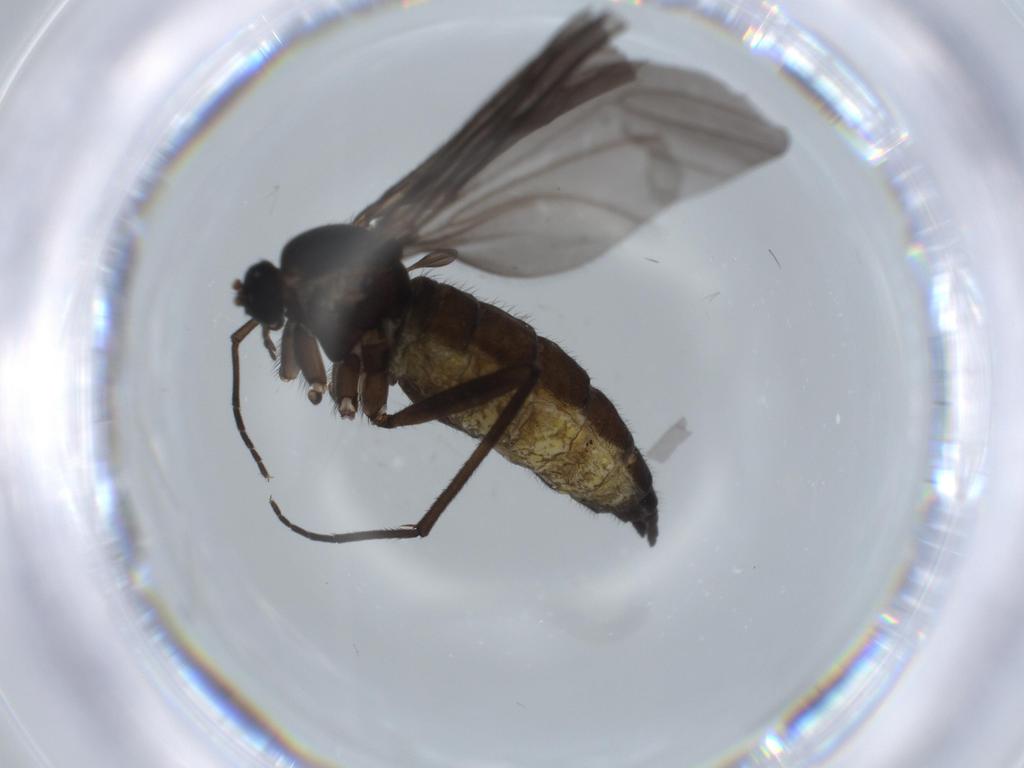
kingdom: Animalia
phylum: Arthropoda
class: Insecta
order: Diptera
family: Sciaridae
